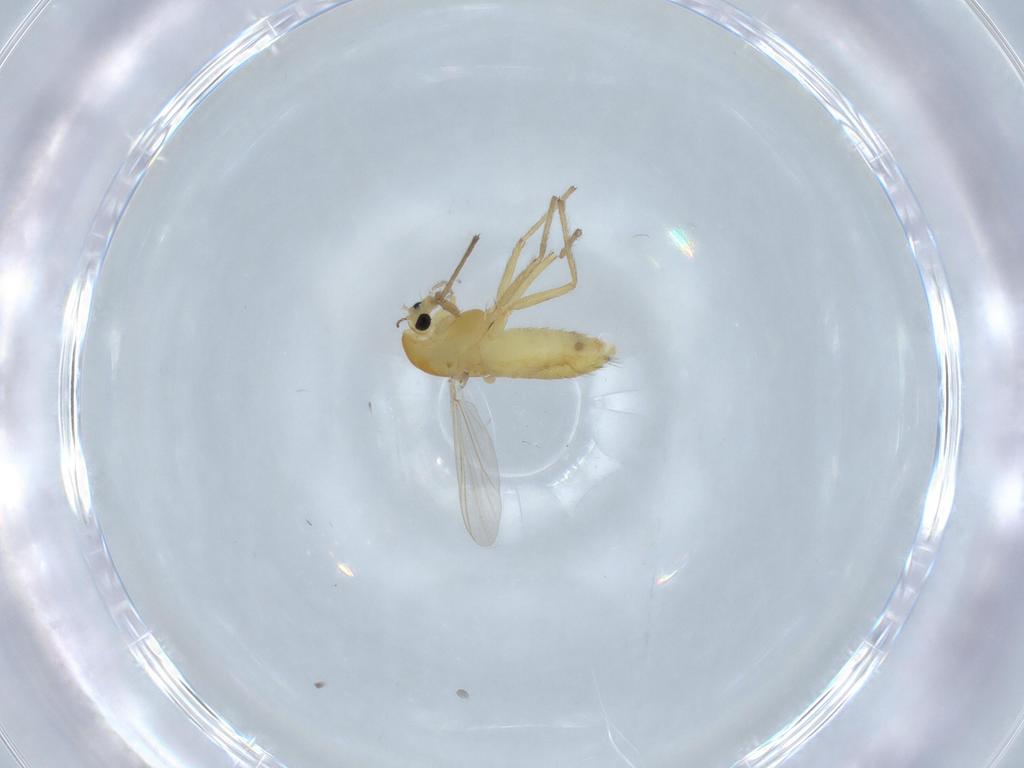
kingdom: Animalia
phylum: Arthropoda
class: Insecta
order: Diptera
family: Chironomidae
